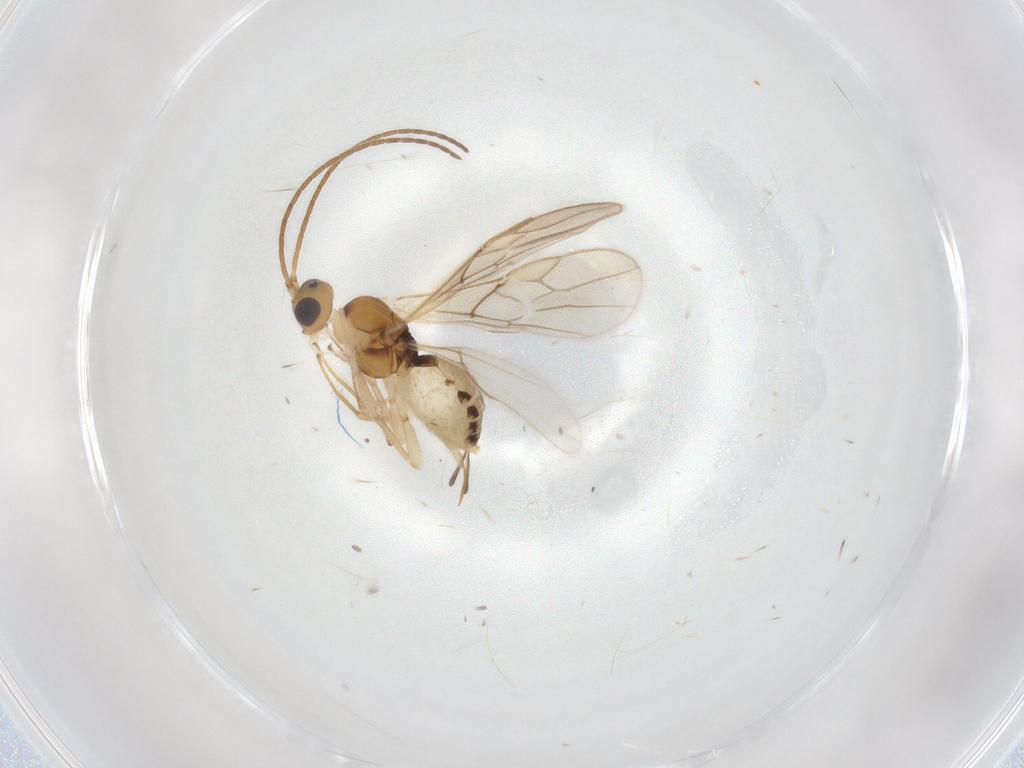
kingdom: Animalia
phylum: Arthropoda
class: Insecta
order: Hymenoptera
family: Braconidae
